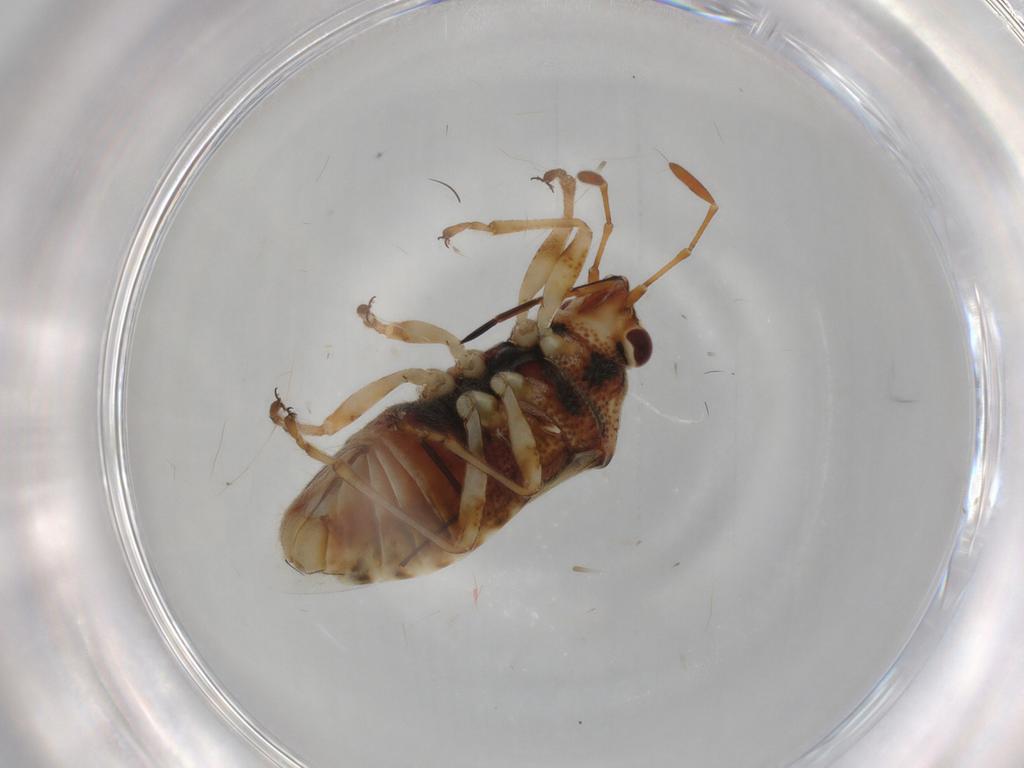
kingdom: Animalia
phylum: Arthropoda
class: Insecta
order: Hemiptera
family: Lygaeidae
